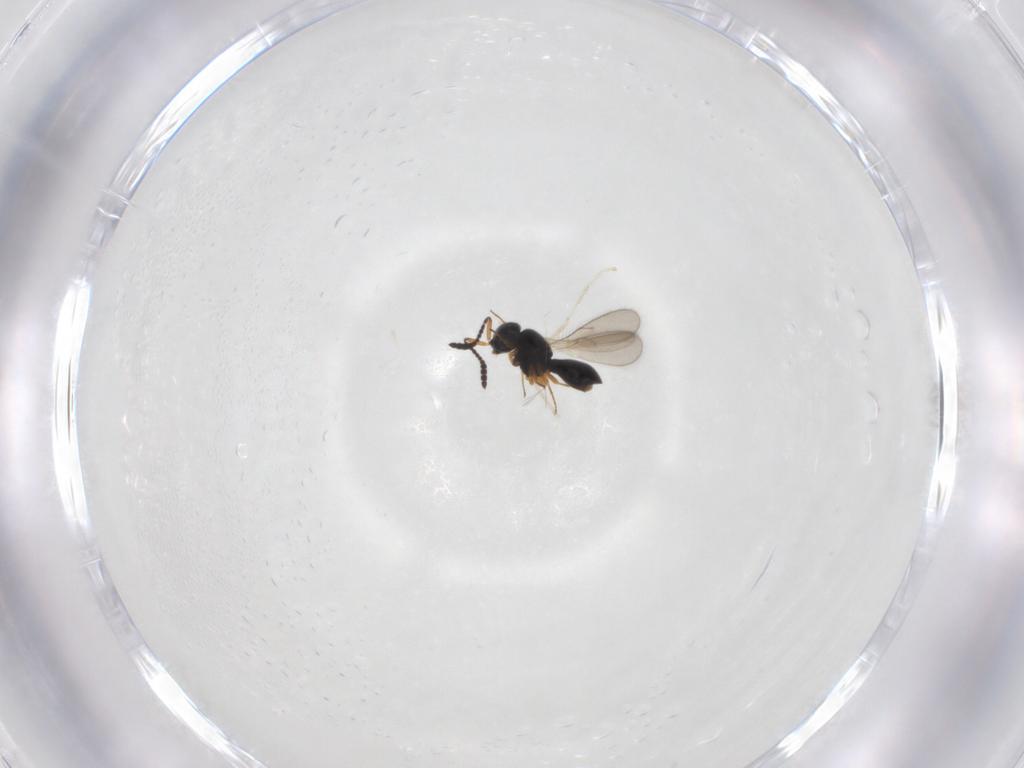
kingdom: Animalia
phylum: Arthropoda
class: Insecta
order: Hymenoptera
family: Scelionidae
